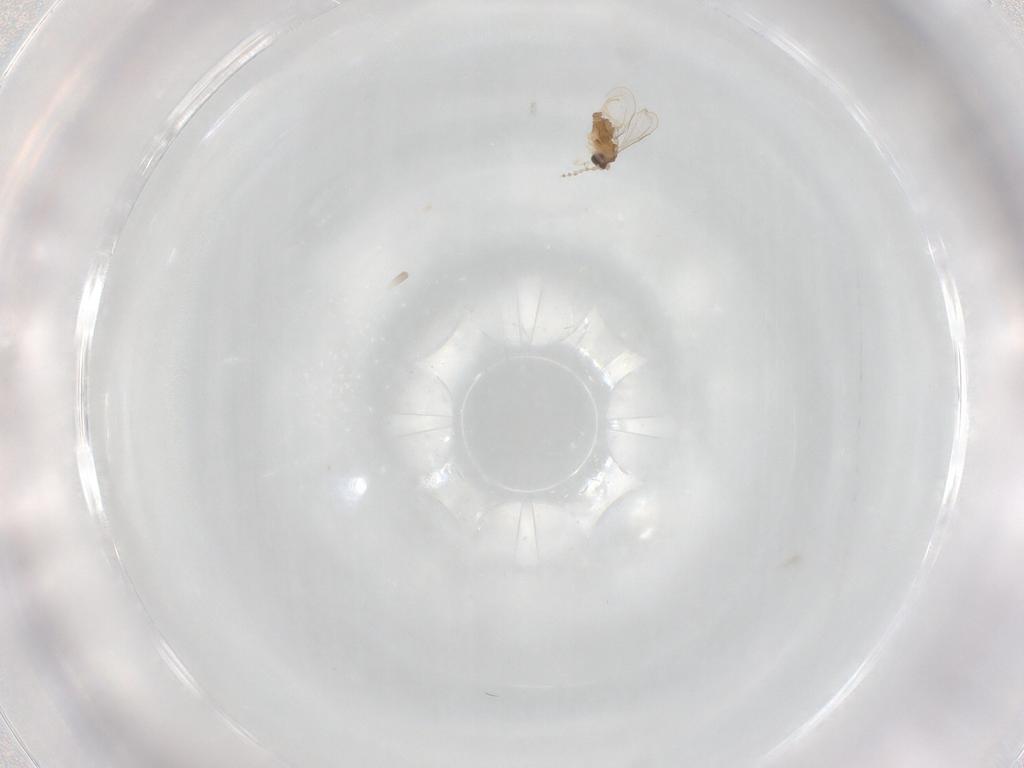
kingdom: Animalia
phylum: Arthropoda
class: Insecta
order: Diptera
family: Cecidomyiidae
